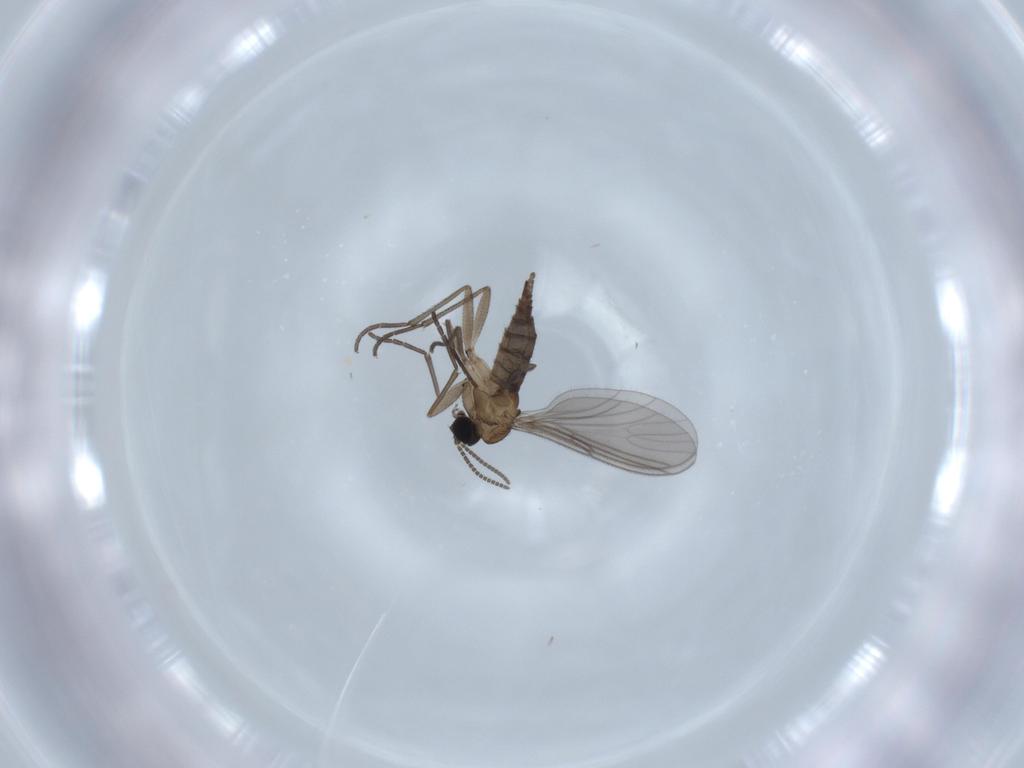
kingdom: Animalia
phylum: Arthropoda
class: Insecta
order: Diptera
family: Sciaridae
